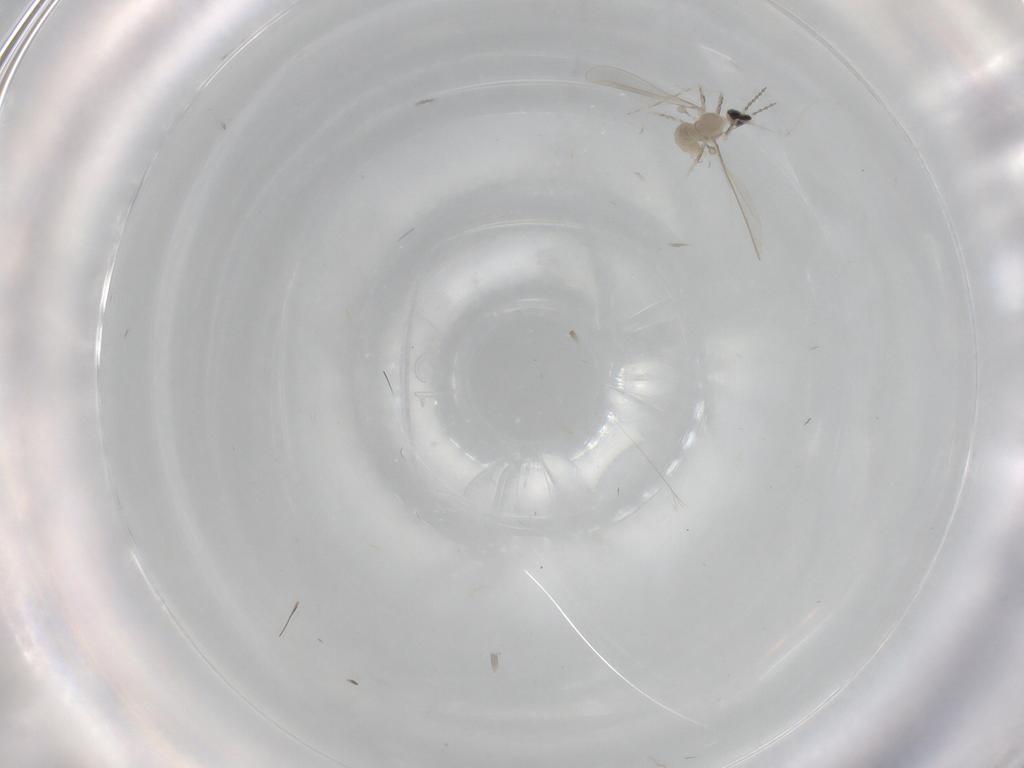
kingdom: Animalia
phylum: Arthropoda
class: Insecta
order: Diptera
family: Cecidomyiidae
